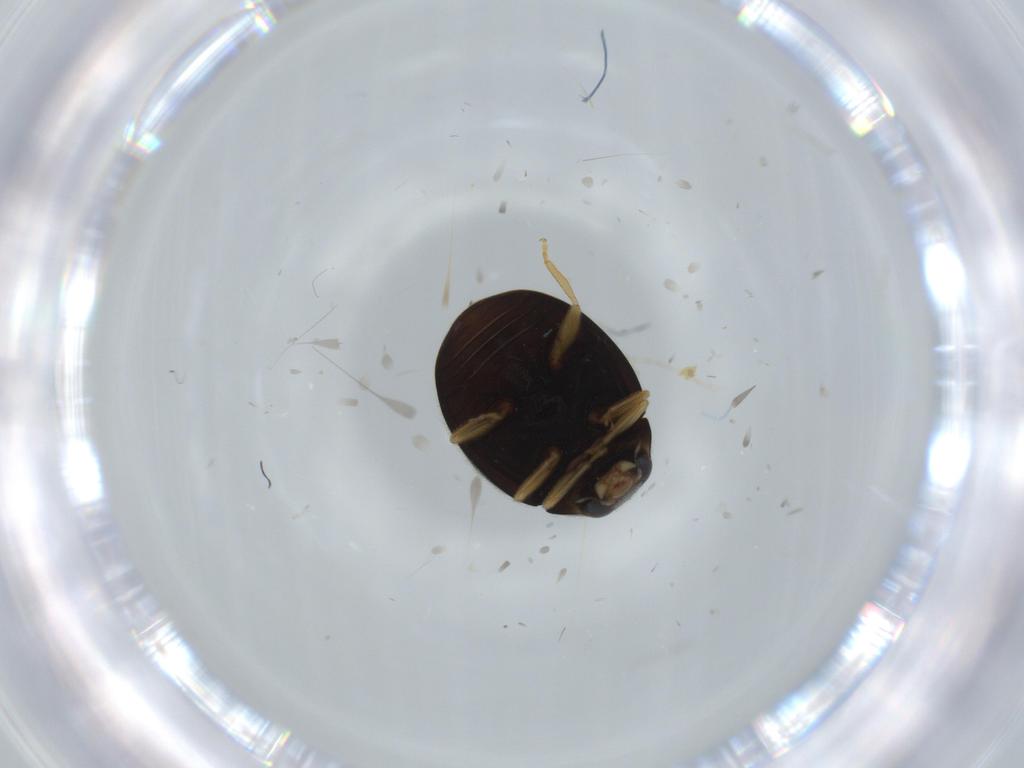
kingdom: Animalia
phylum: Arthropoda
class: Insecta
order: Coleoptera
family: Coccinellidae
